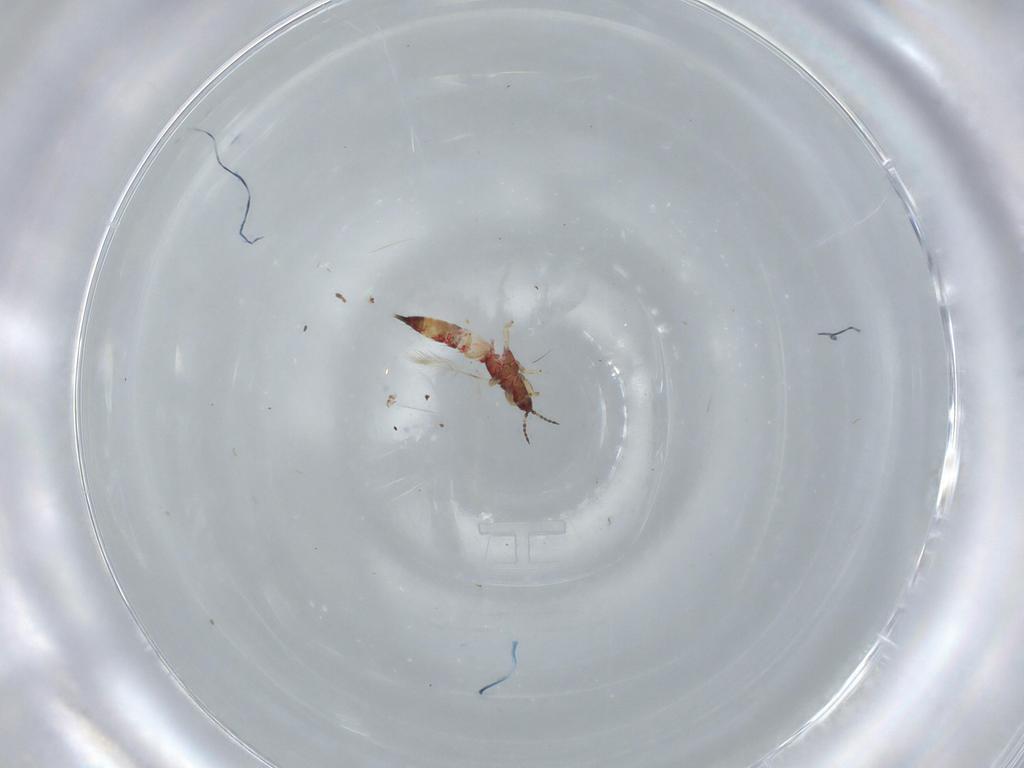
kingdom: Animalia
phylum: Arthropoda
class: Insecta
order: Thysanoptera
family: Phlaeothripidae
